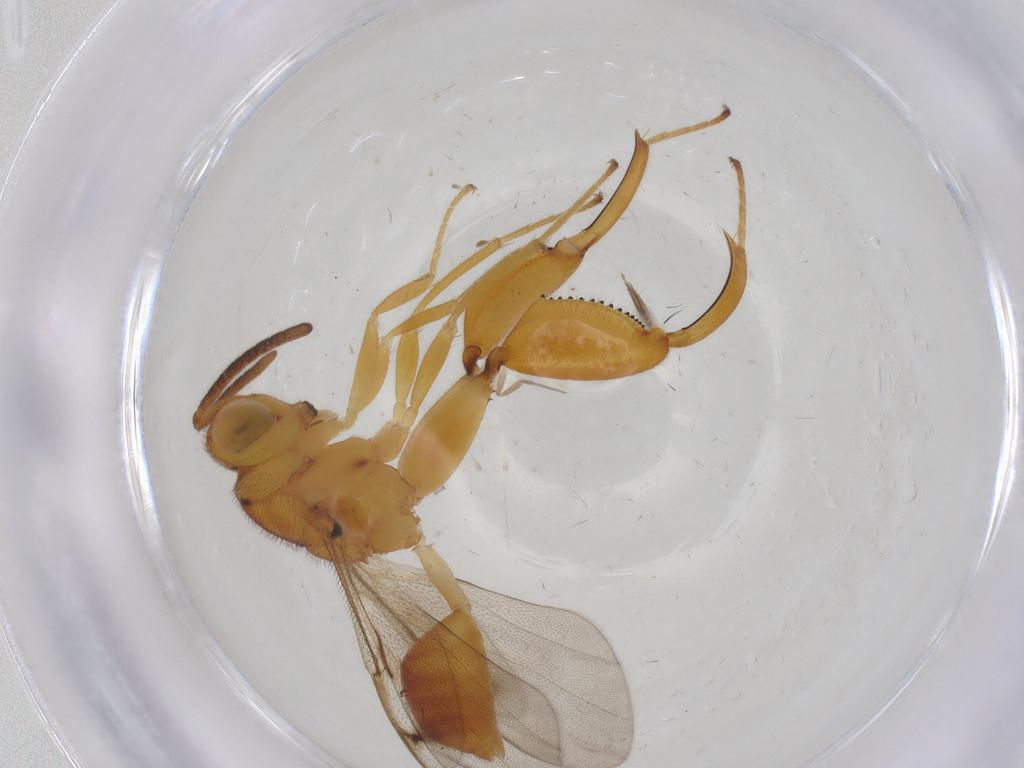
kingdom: Animalia
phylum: Arthropoda
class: Insecta
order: Hymenoptera
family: Chalcididae
